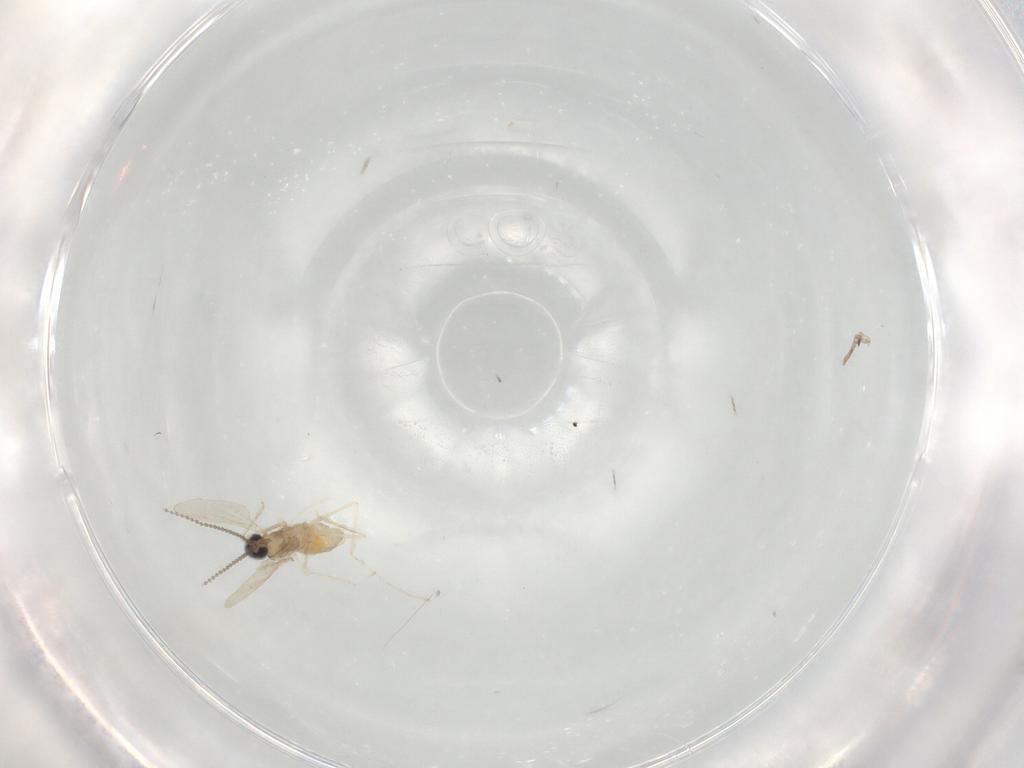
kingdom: Animalia
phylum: Arthropoda
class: Insecta
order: Diptera
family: Cecidomyiidae
